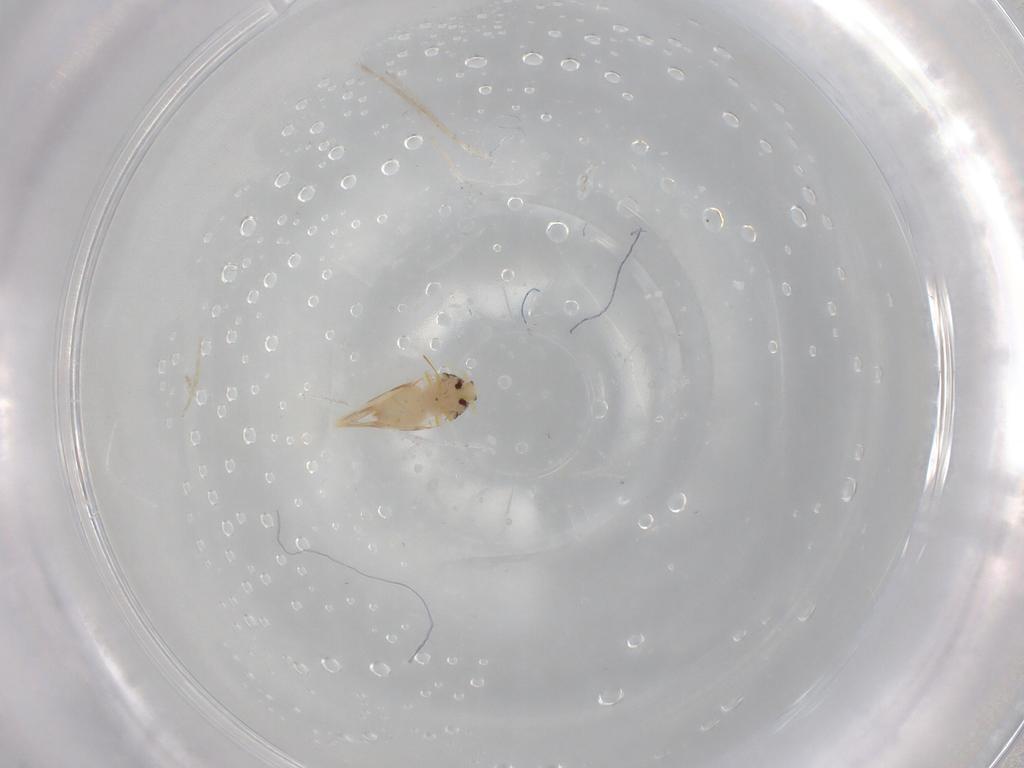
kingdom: Animalia
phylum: Arthropoda
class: Insecta
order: Hemiptera
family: Aleyrodidae
